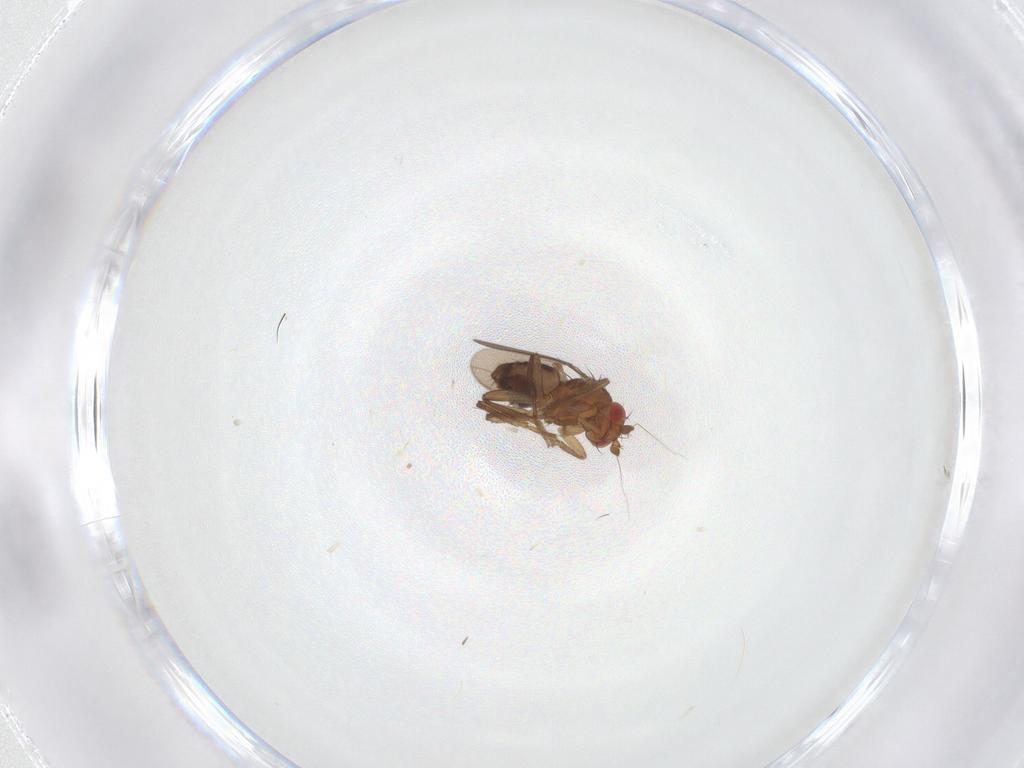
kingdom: Animalia
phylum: Arthropoda
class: Insecta
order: Diptera
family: Sphaeroceridae
